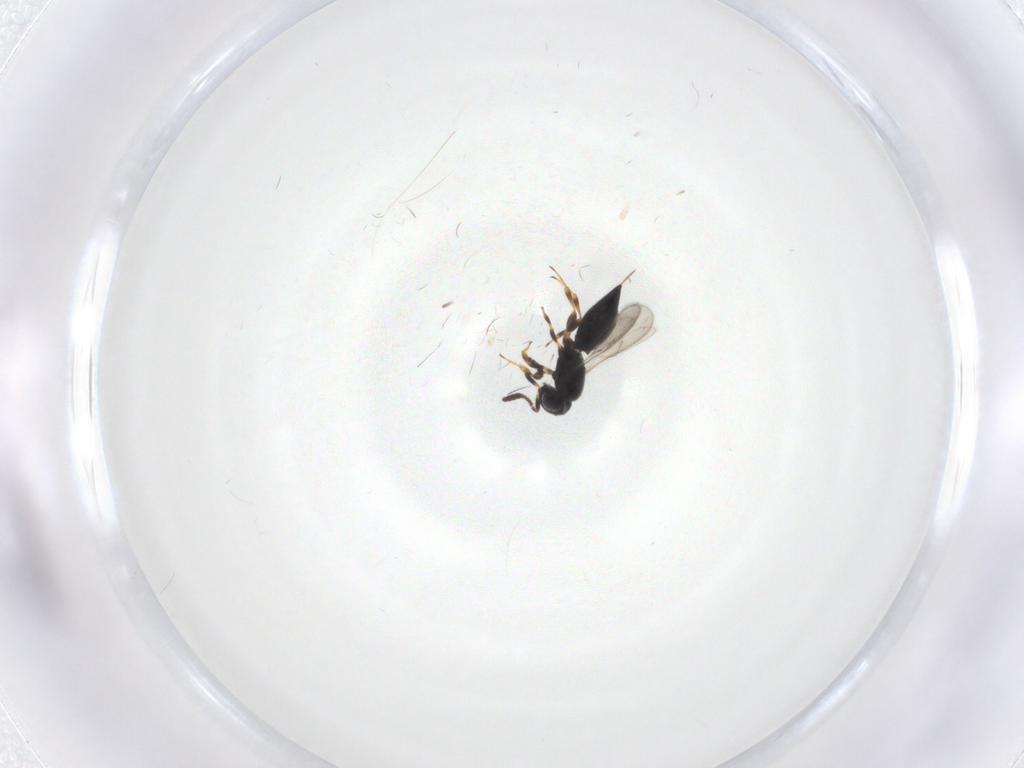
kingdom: Animalia
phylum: Arthropoda
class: Insecta
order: Hymenoptera
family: Scelionidae
